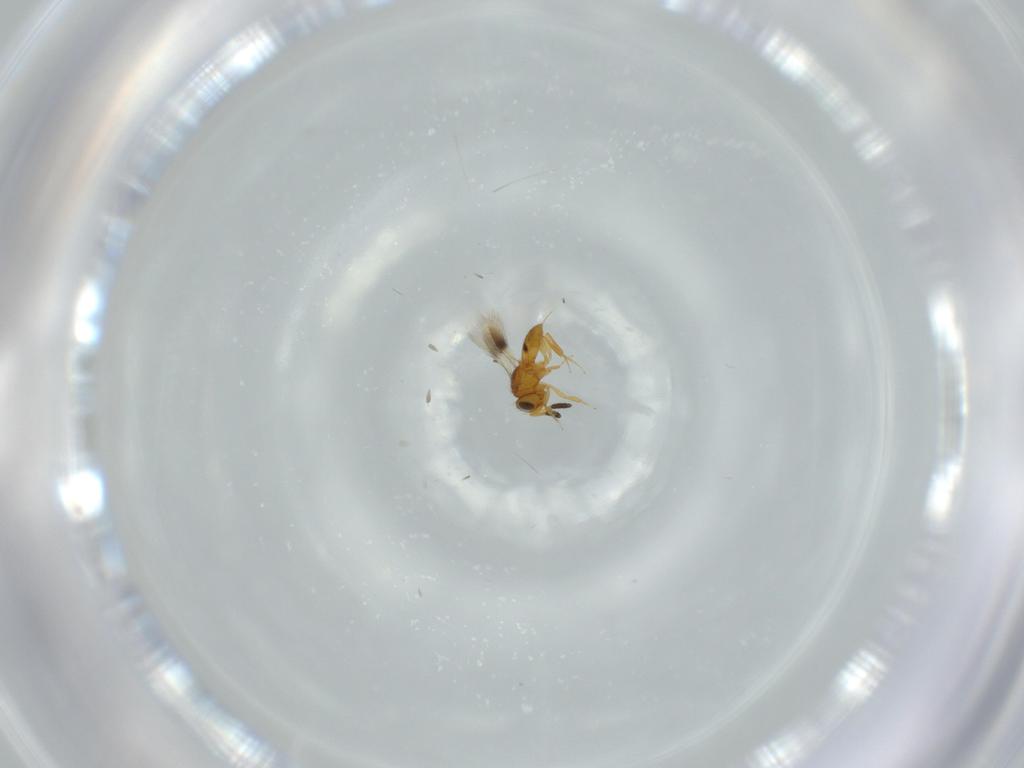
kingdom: Animalia
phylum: Arthropoda
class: Insecta
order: Hymenoptera
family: Scelionidae
